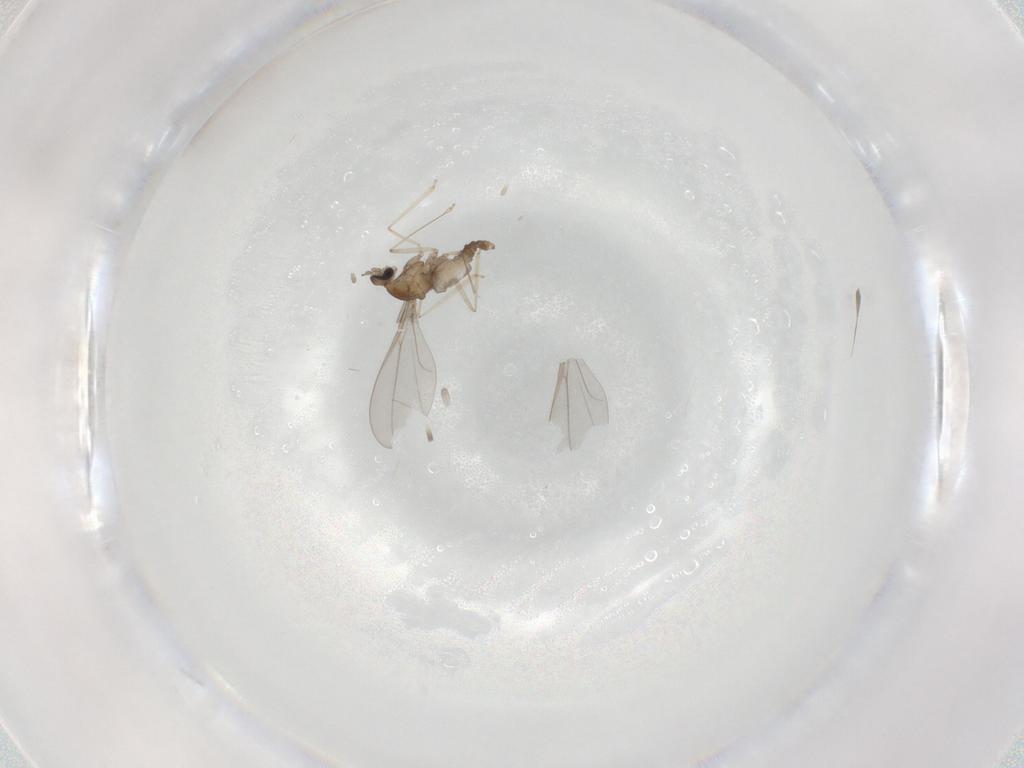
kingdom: Animalia
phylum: Arthropoda
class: Insecta
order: Diptera
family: Cecidomyiidae
